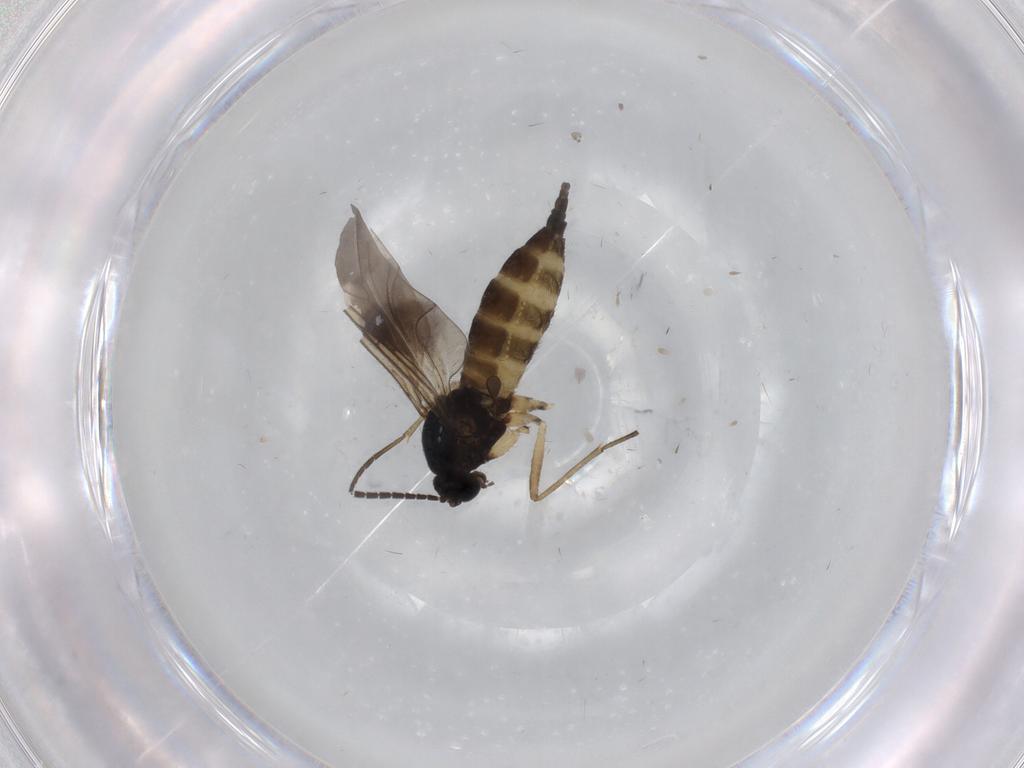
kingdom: Animalia
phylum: Arthropoda
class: Insecta
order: Diptera
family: Sciaridae
